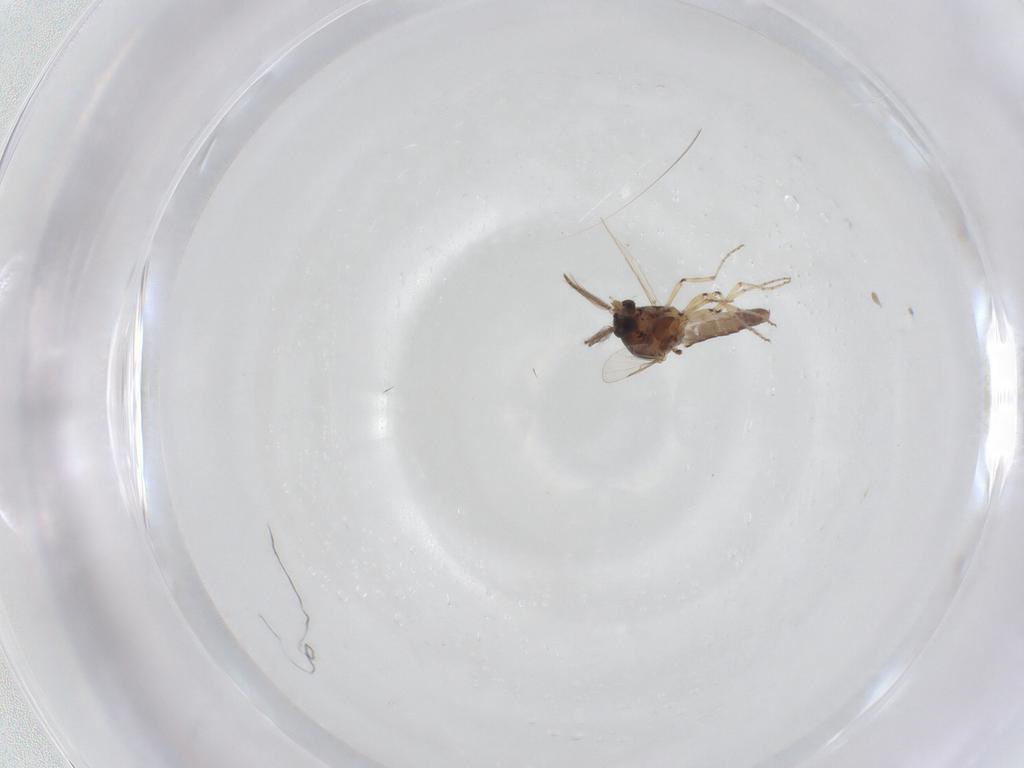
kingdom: Animalia
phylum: Arthropoda
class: Insecta
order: Diptera
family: Ceratopogonidae
